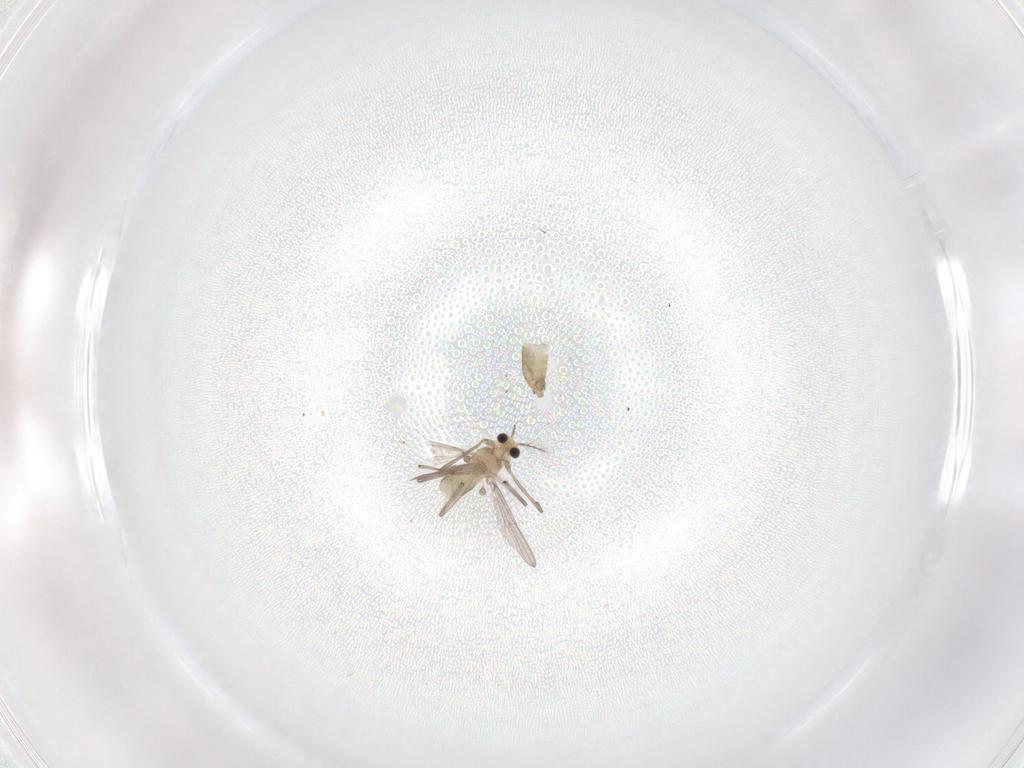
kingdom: Animalia
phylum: Arthropoda
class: Insecta
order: Diptera
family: Chironomidae
